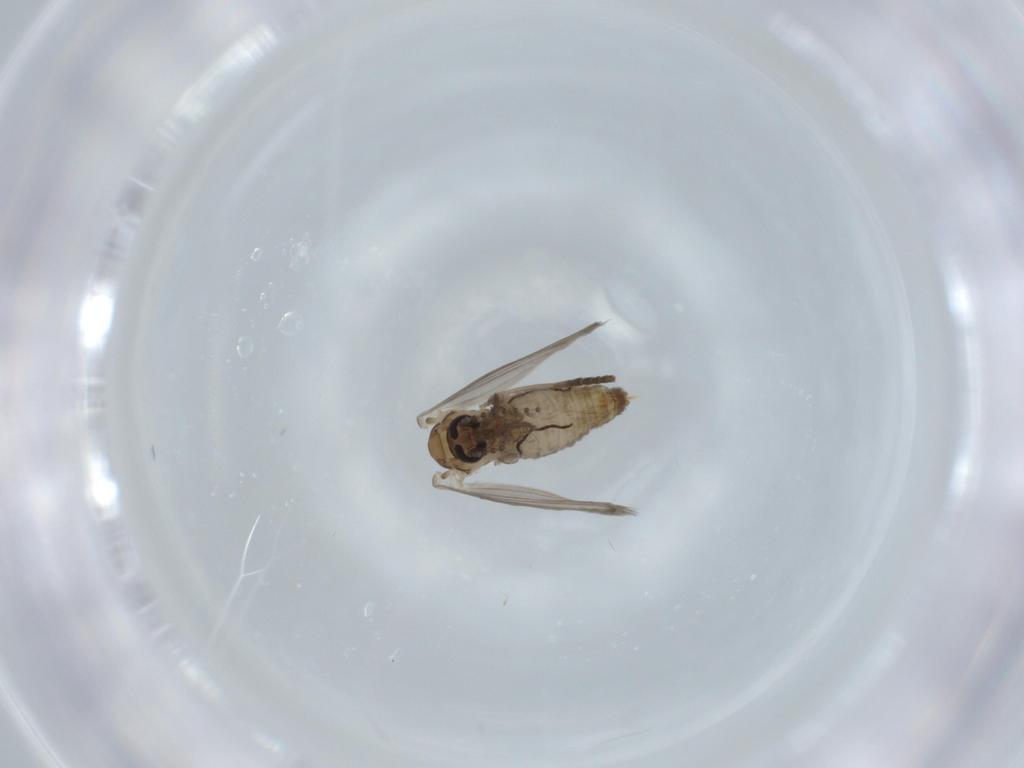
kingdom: Animalia
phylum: Arthropoda
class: Insecta
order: Diptera
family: Psychodidae
